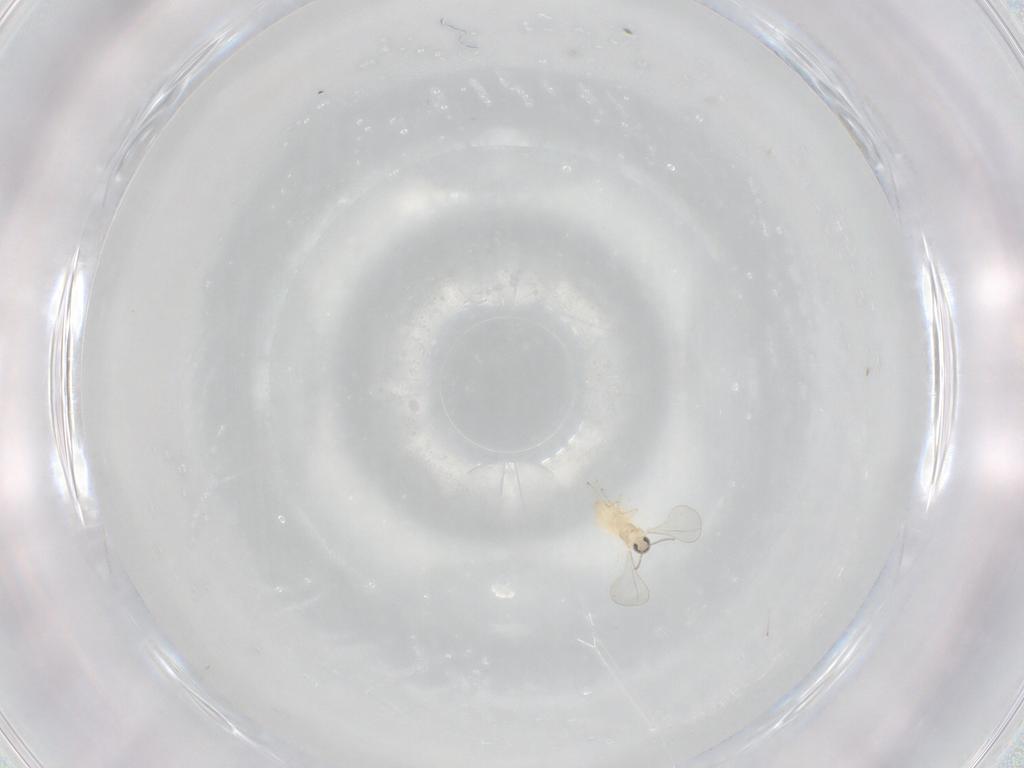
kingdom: Animalia
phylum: Arthropoda
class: Insecta
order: Diptera
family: Cecidomyiidae
